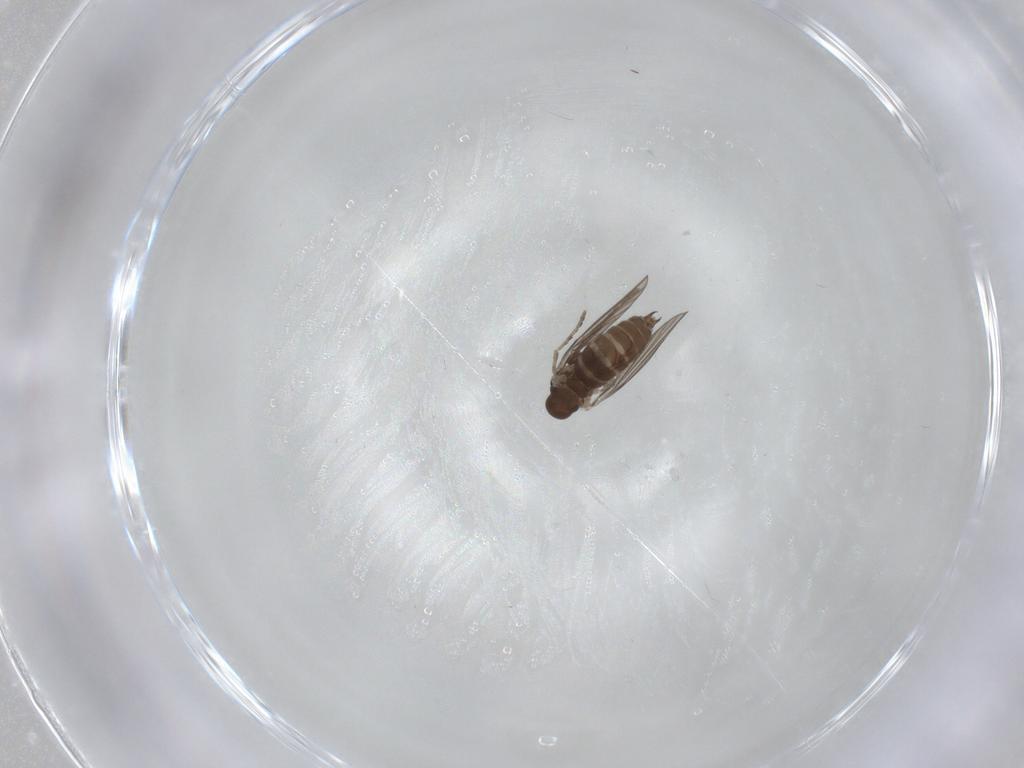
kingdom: Animalia
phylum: Arthropoda
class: Insecta
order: Diptera
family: Psychodidae
